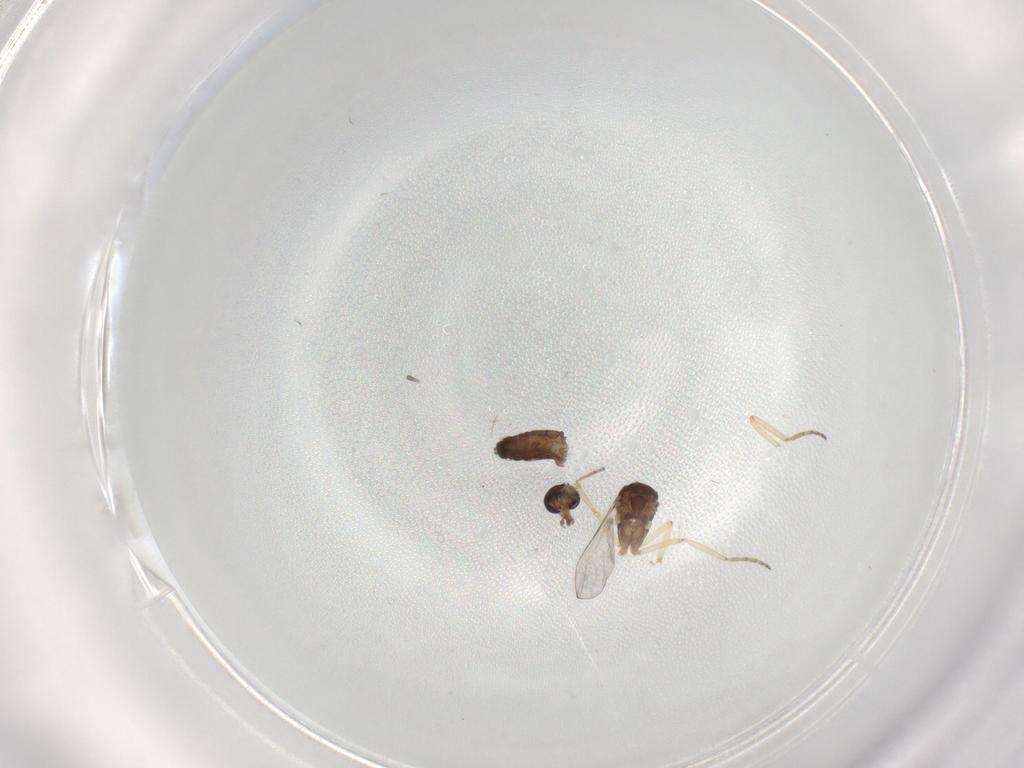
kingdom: Animalia
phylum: Arthropoda
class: Insecta
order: Diptera
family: Ceratopogonidae
